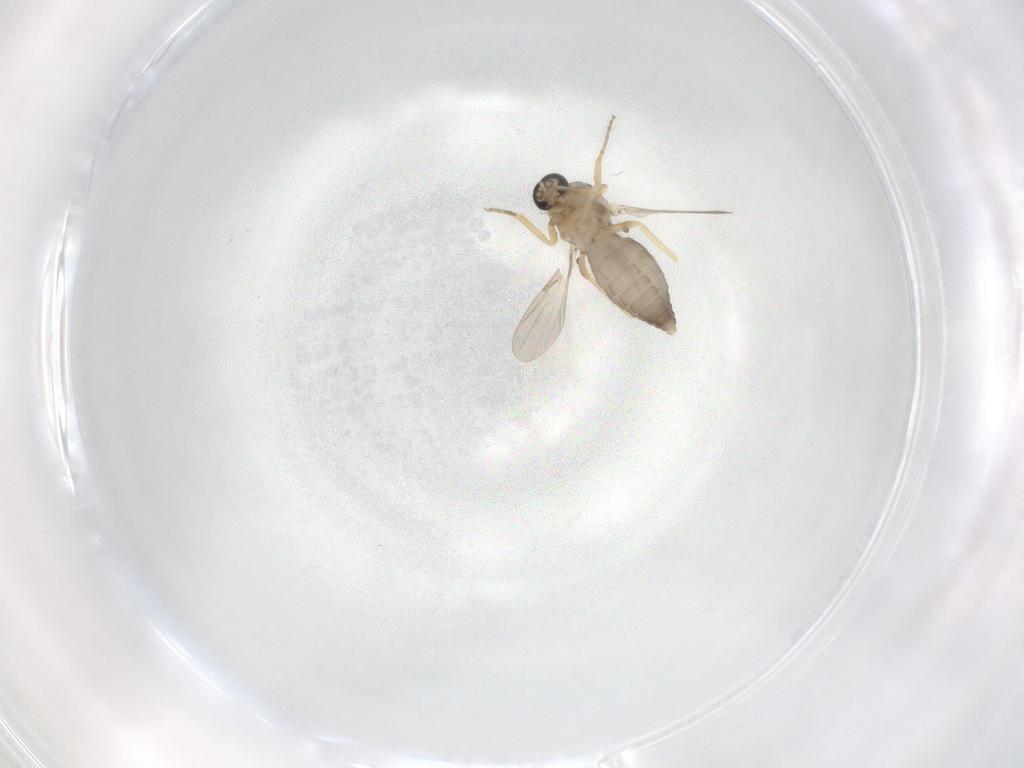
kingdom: Animalia
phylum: Arthropoda
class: Insecta
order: Diptera
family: Ceratopogonidae
